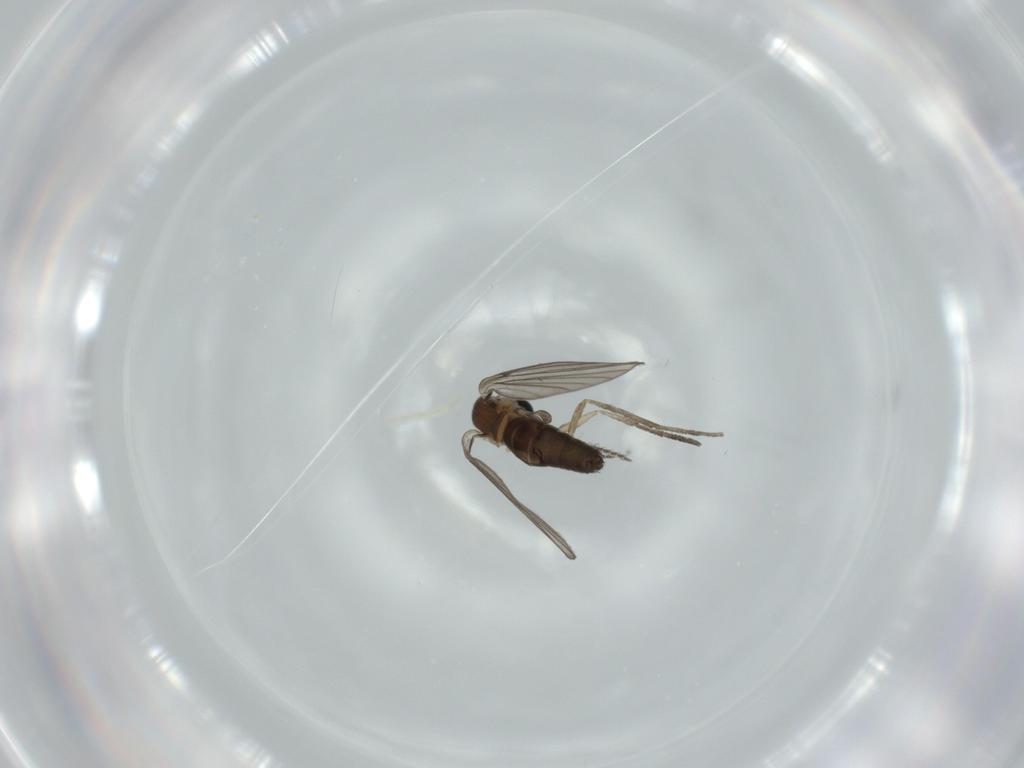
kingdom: Animalia
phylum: Arthropoda
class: Insecta
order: Diptera
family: Psychodidae
